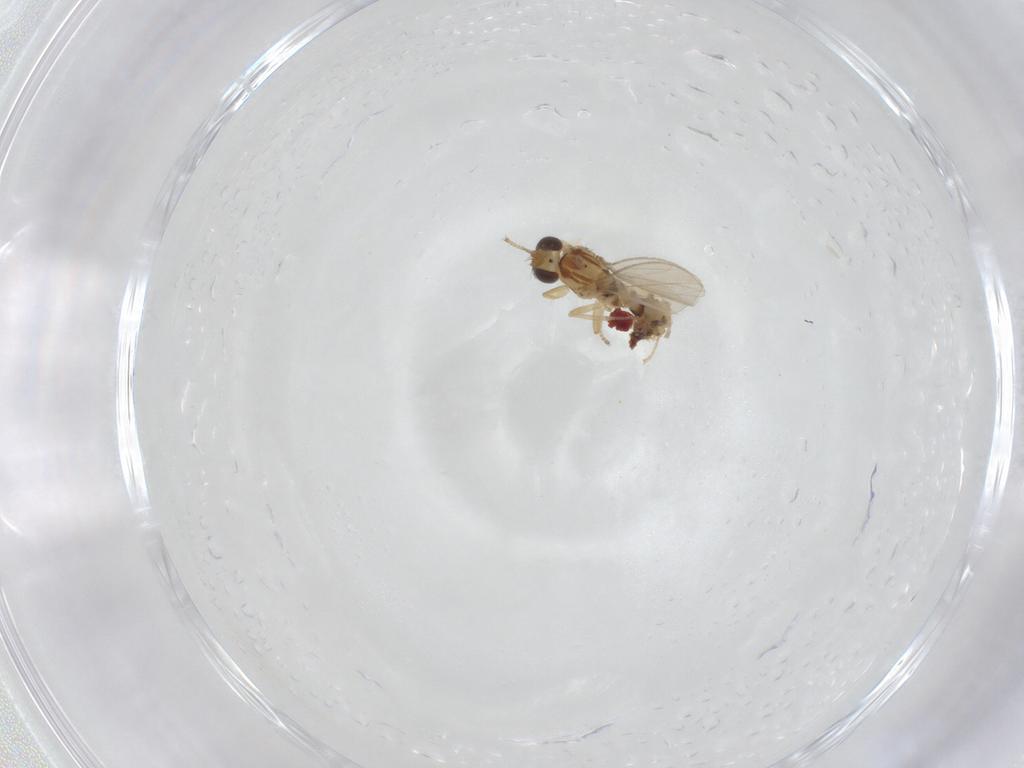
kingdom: Animalia
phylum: Arthropoda
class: Insecta
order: Diptera
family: Periscelididae
